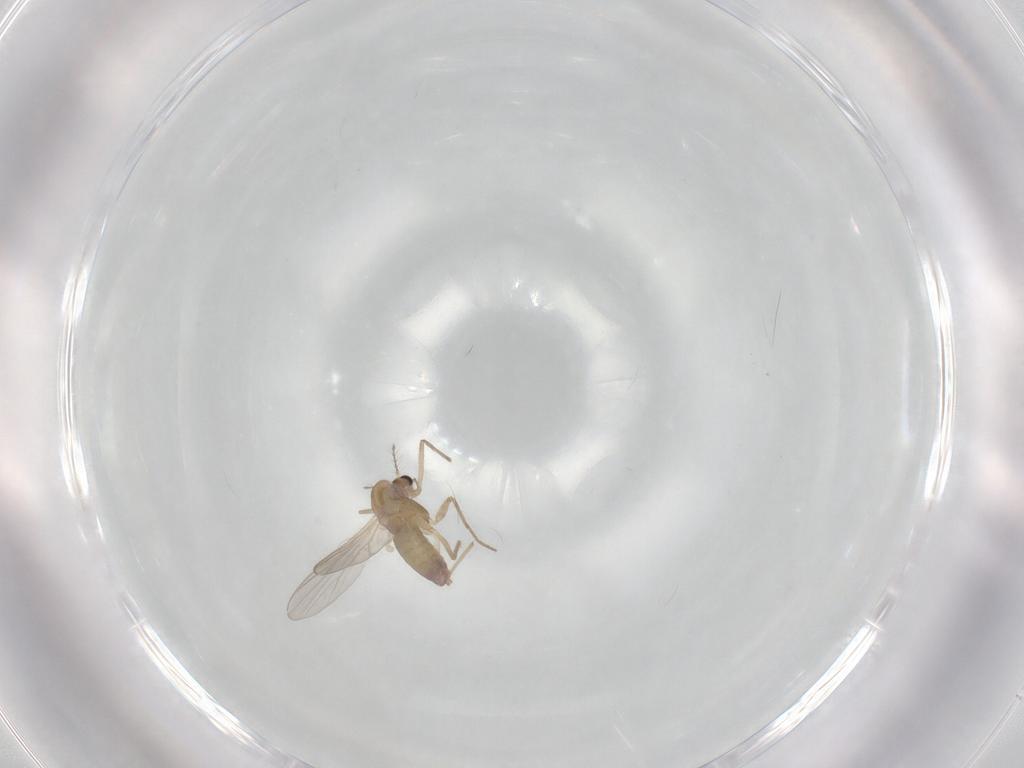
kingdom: Animalia
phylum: Arthropoda
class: Insecta
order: Diptera
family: Chironomidae
